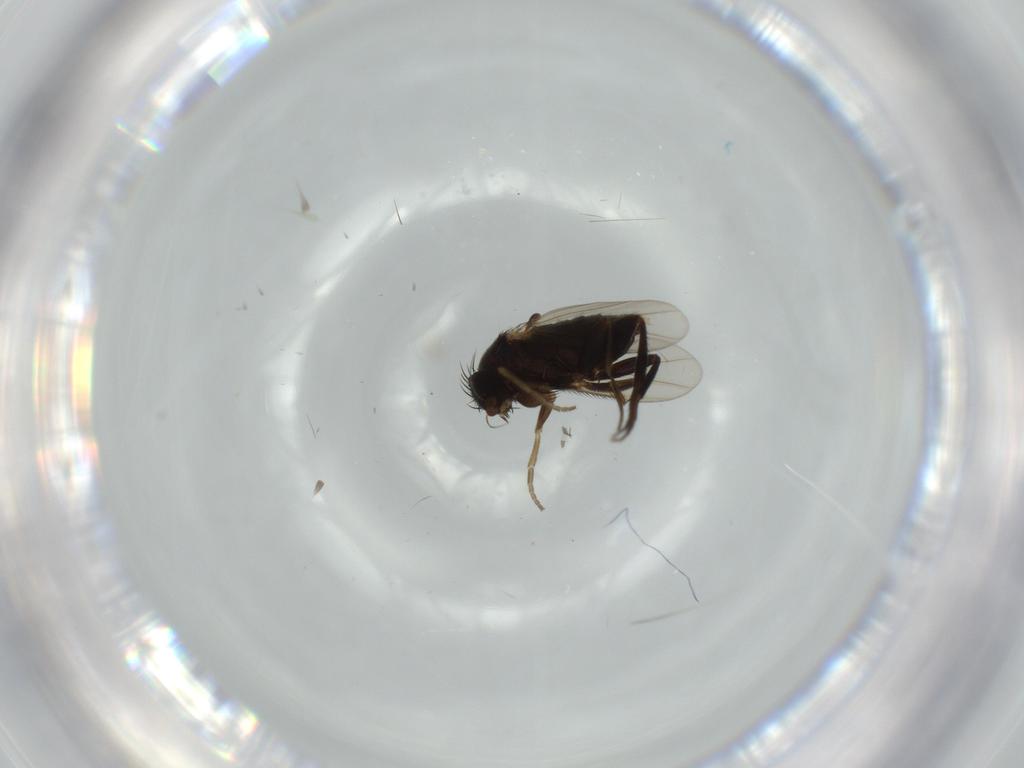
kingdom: Animalia
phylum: Arthropoda
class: Insecta
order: Diptera
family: Phoridae
